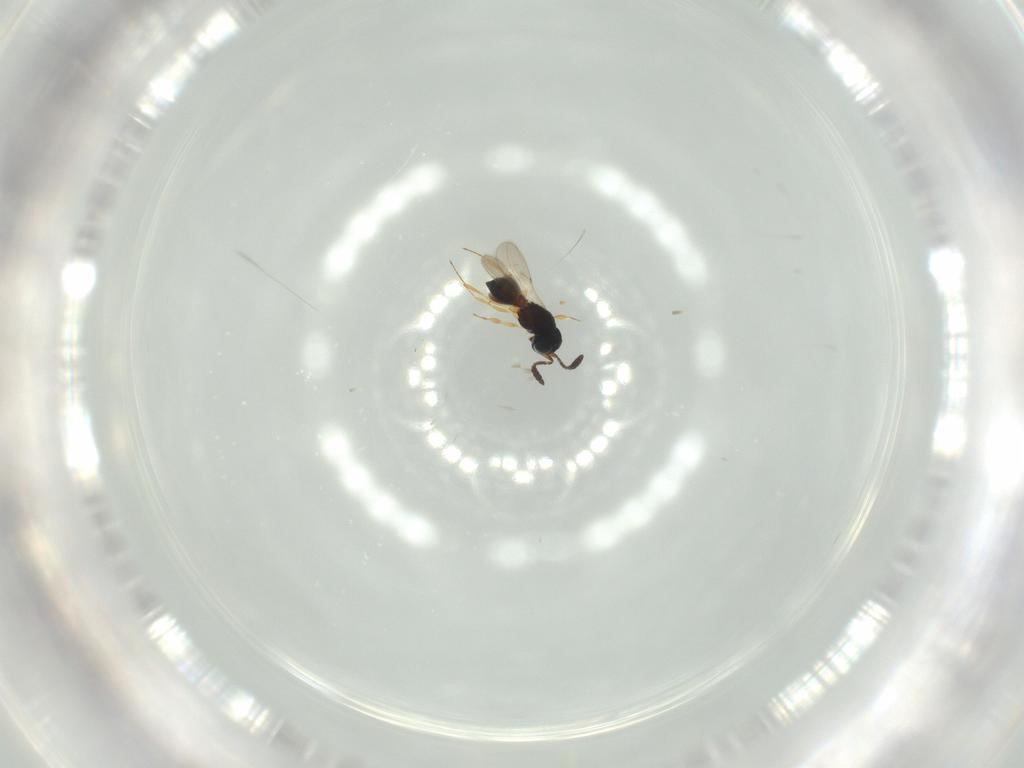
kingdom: Animalia
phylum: Arthropoda
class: Insecta
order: Hymenoptera
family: Scelionidae
